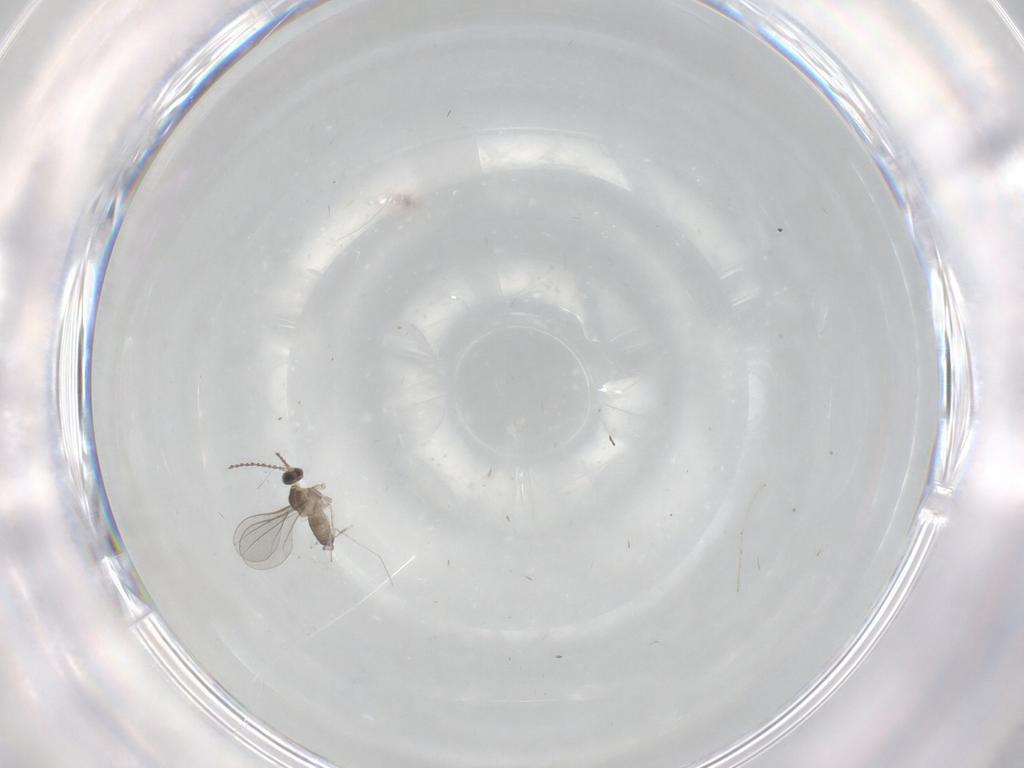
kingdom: Animalia
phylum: Arthropoda
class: Insecta
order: Diptera
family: Cecidomyiidae
